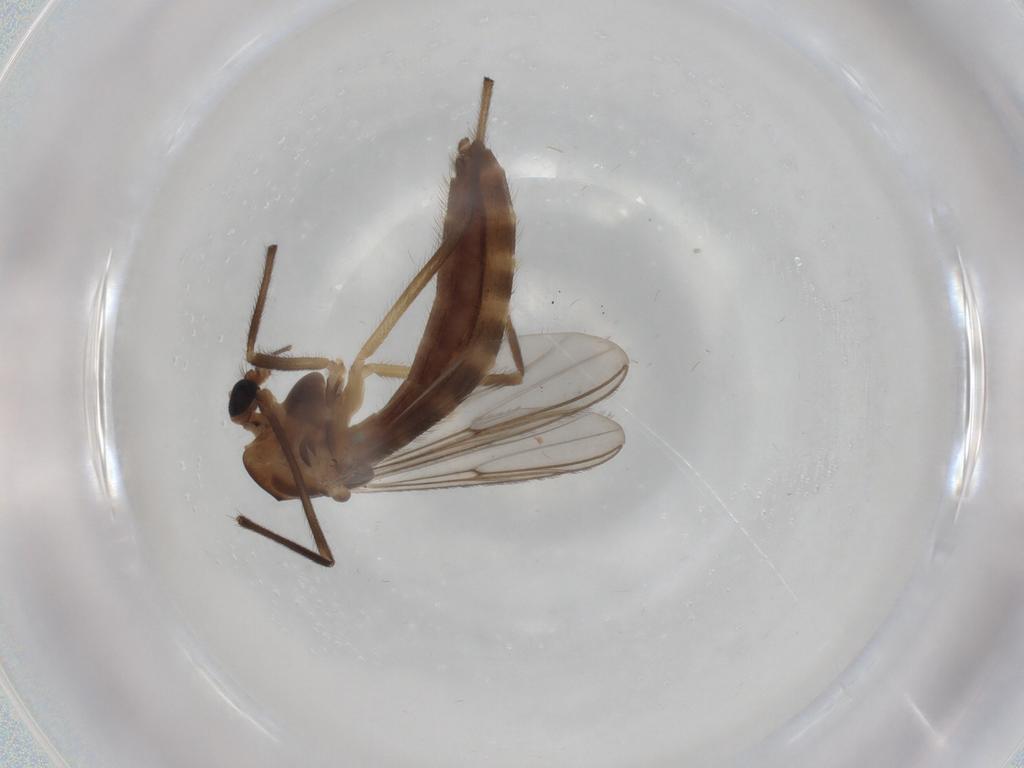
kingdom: Animalia
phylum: Arthropoda
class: Insecta
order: Diptera
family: Chironomidae
